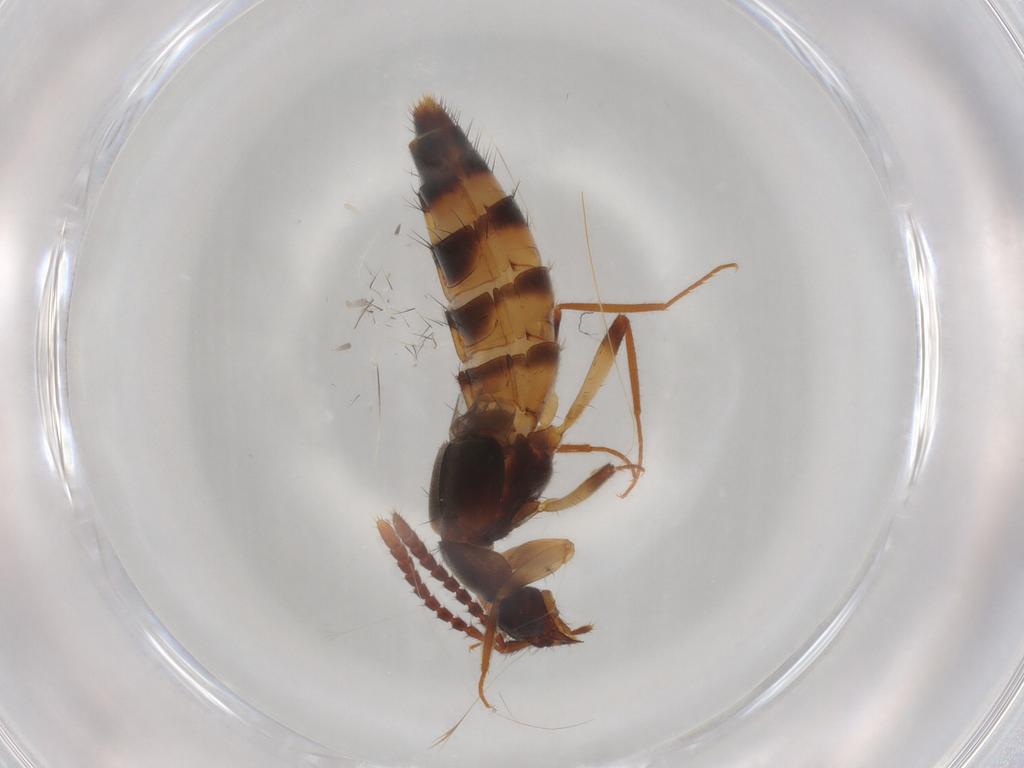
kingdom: Animalia
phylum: Arthropoda
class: Insecta
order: Coleoptera
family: Staphylinidae
